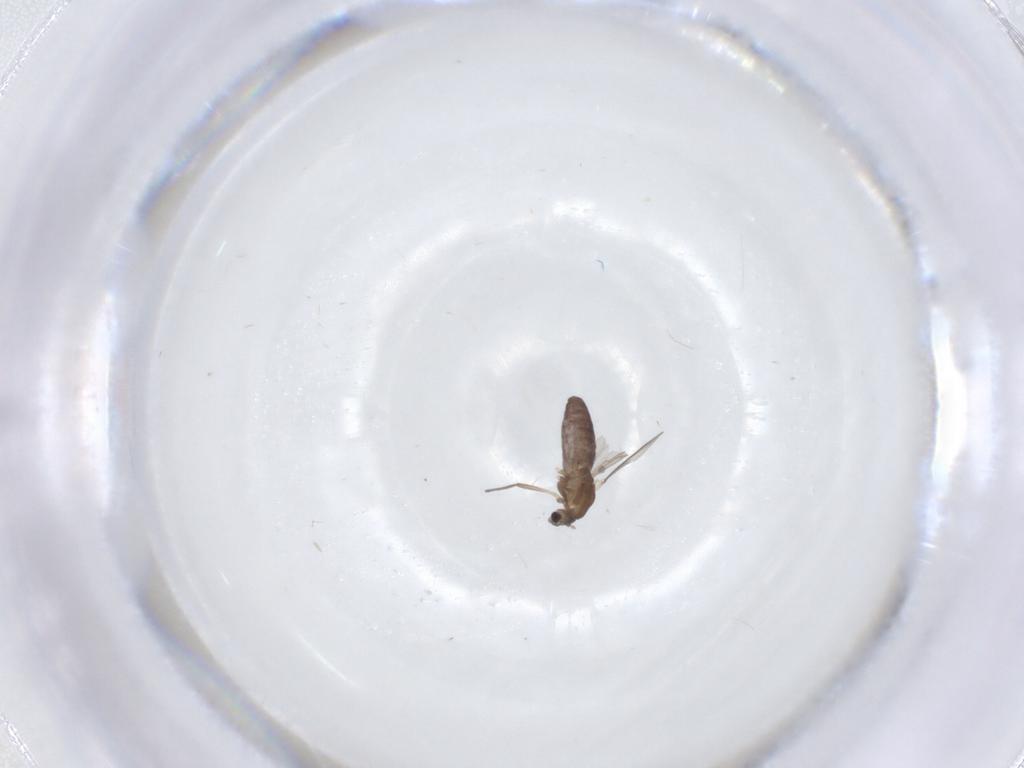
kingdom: Animalia
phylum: Arthropoda
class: Insecta
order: Diptera
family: Chironomidae
